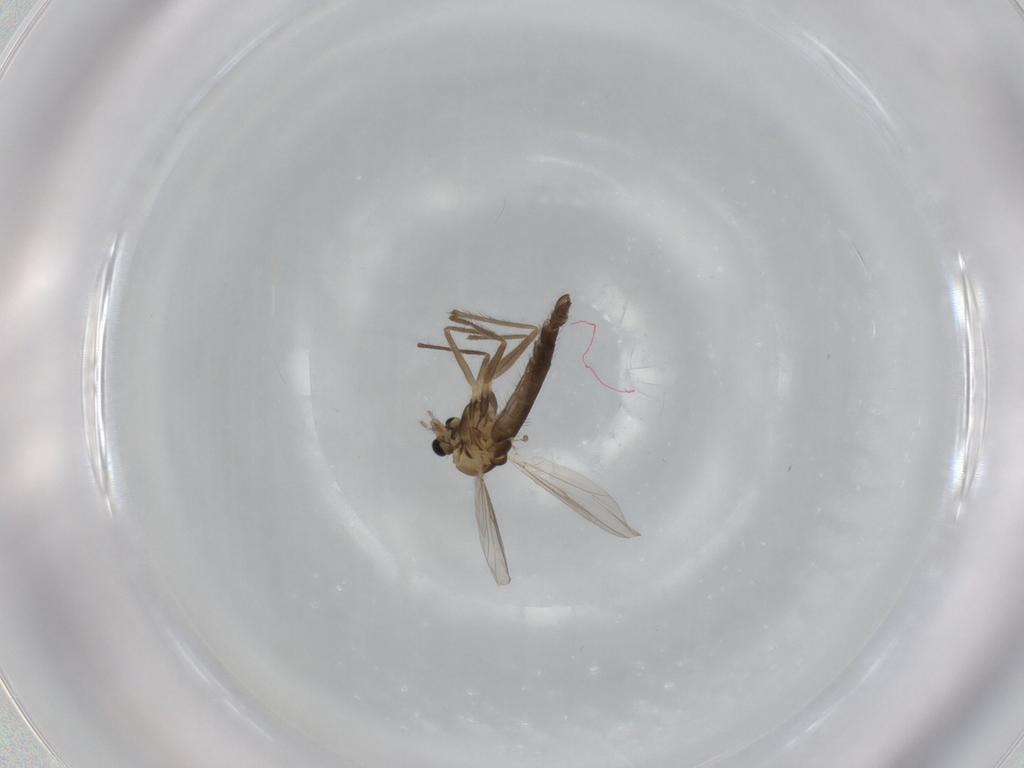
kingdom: Animalia
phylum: Arthropoda
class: Insecta
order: Diptera
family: Chironomidae
